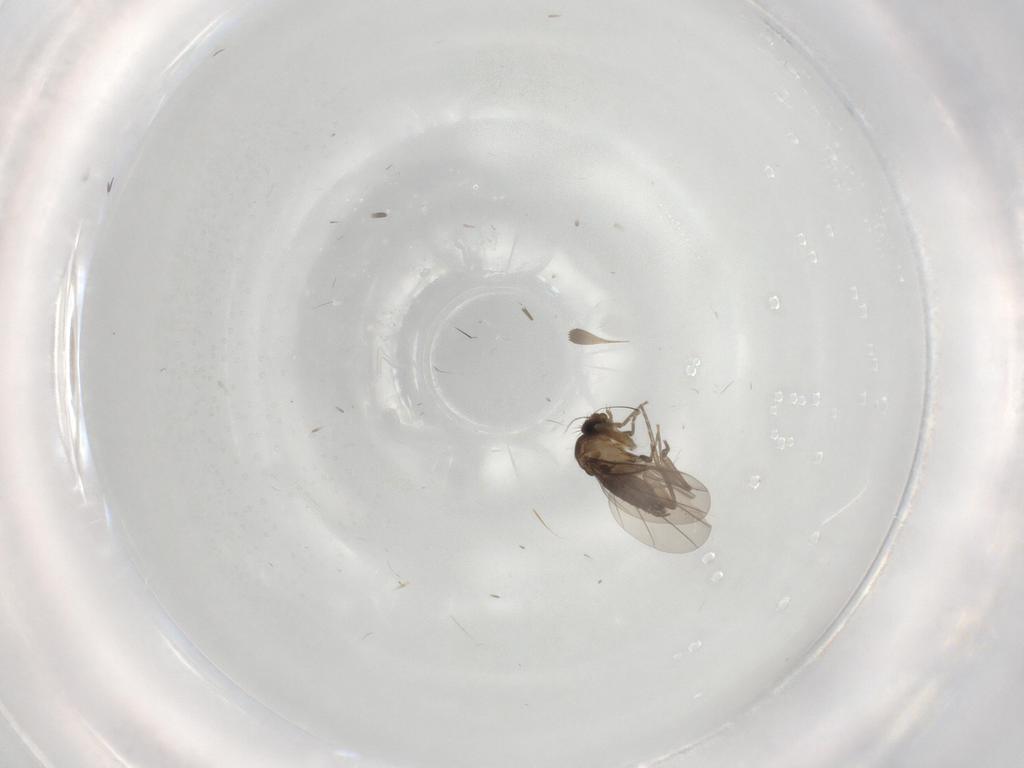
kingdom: Animalia
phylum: Arthropoda
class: Insecta
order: Diptera
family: Phoridae
